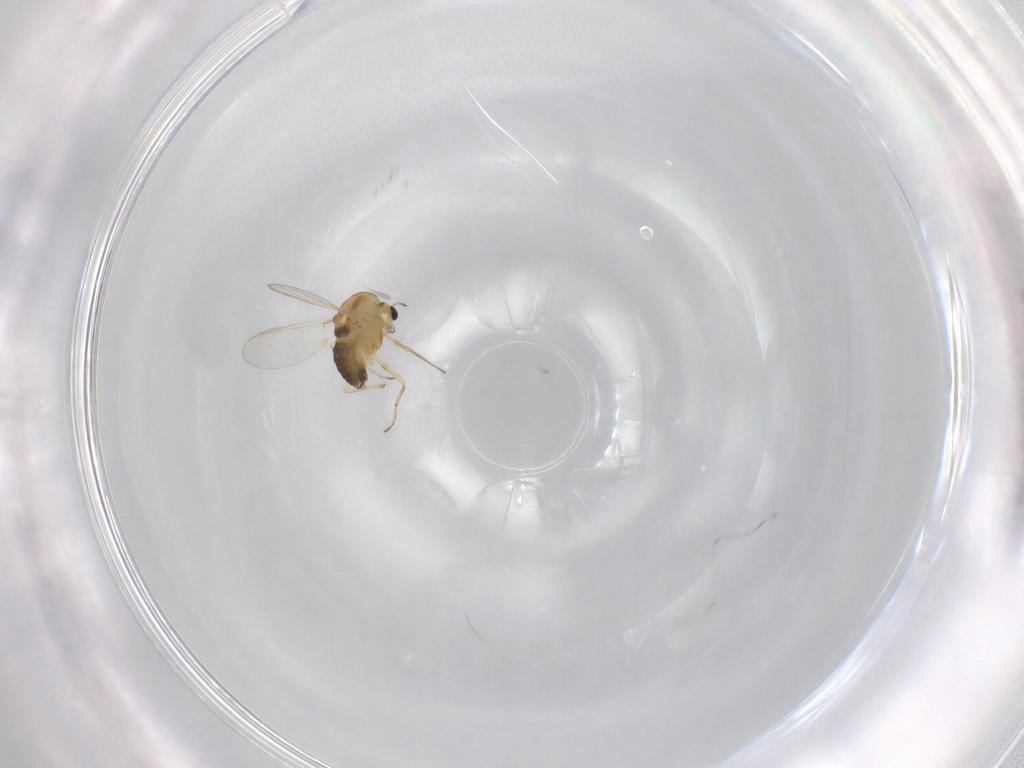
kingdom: Animalia
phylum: Arthropoda
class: Insecta
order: Diptera
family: Chironomidae
